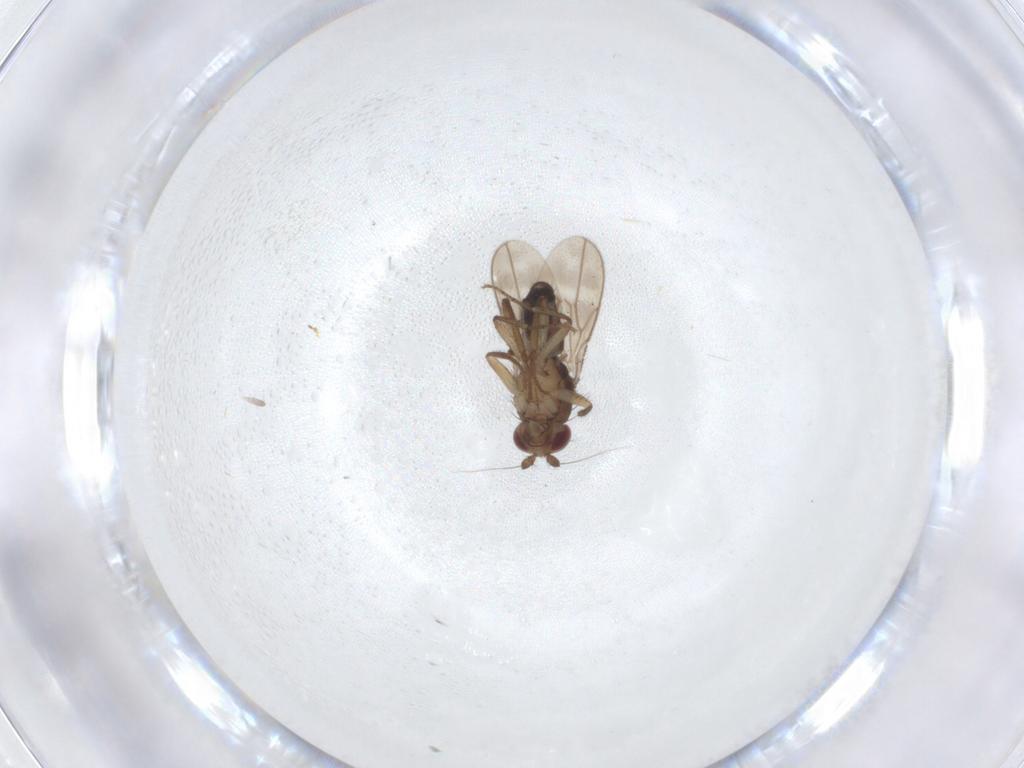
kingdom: Animalia
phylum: Arthropoda
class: Insecta
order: Diptera
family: Sphaeroceridae
